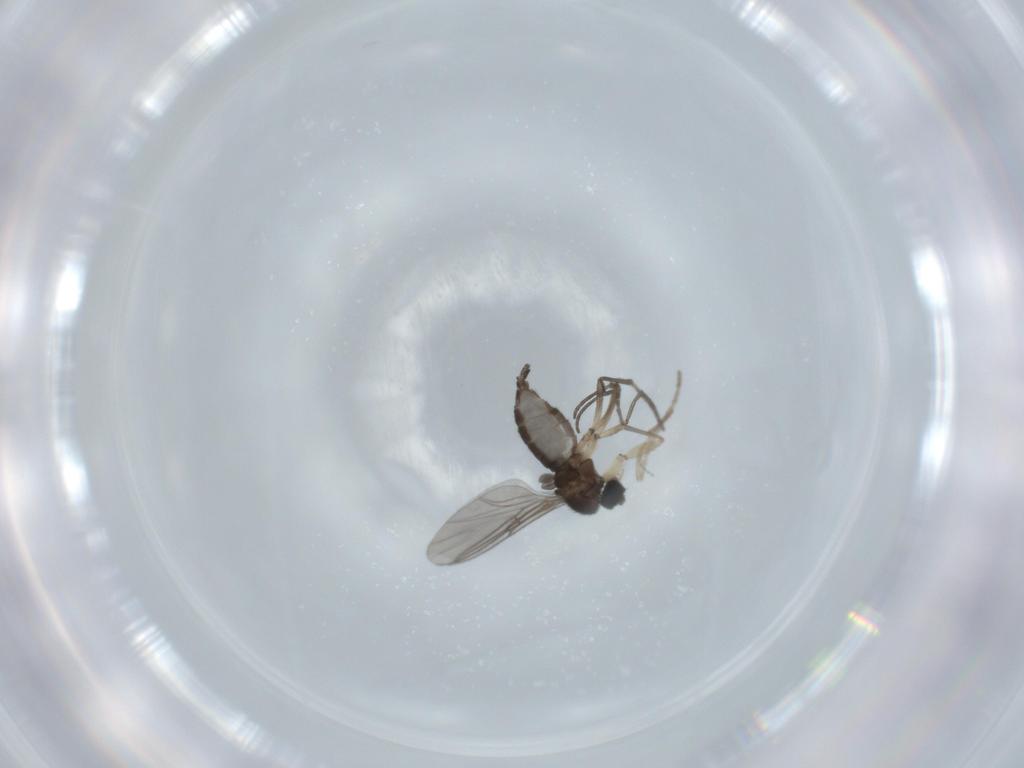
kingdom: Animalia
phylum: Arthropoda
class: Insecta
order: Diptera
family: Sciaridae
